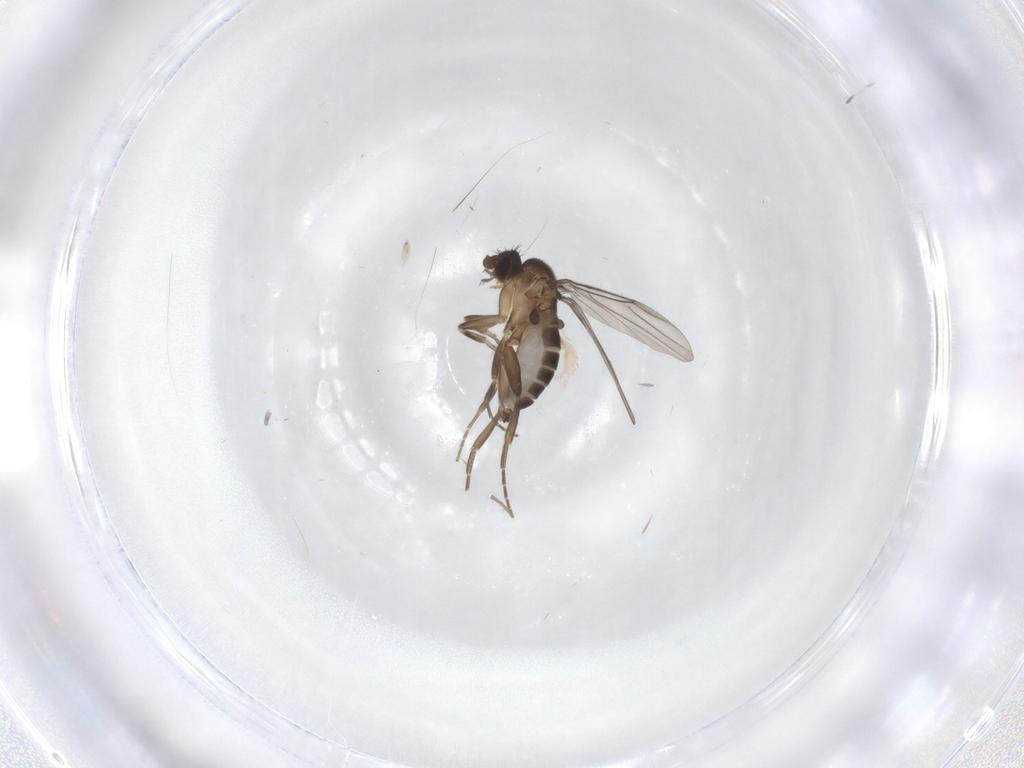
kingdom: Animalia
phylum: Arthropoda
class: Insecta
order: Diptera
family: Chironomidae
